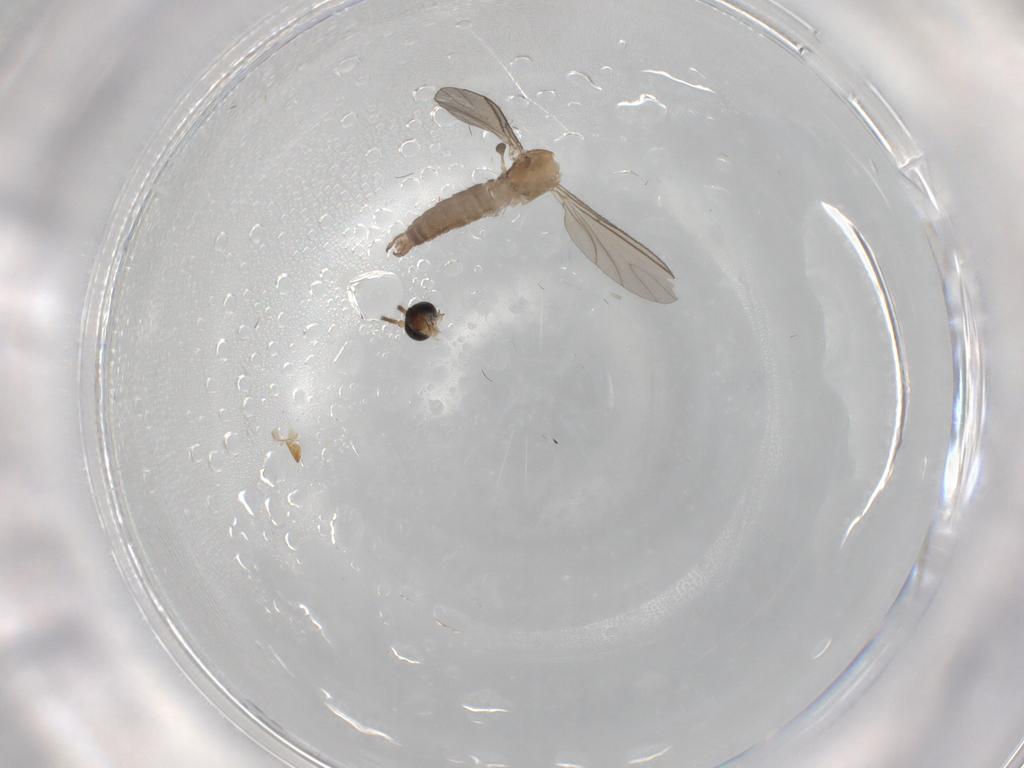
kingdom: Animalia
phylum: Arthropoda
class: Insecta
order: Diptera
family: Sciaridae
